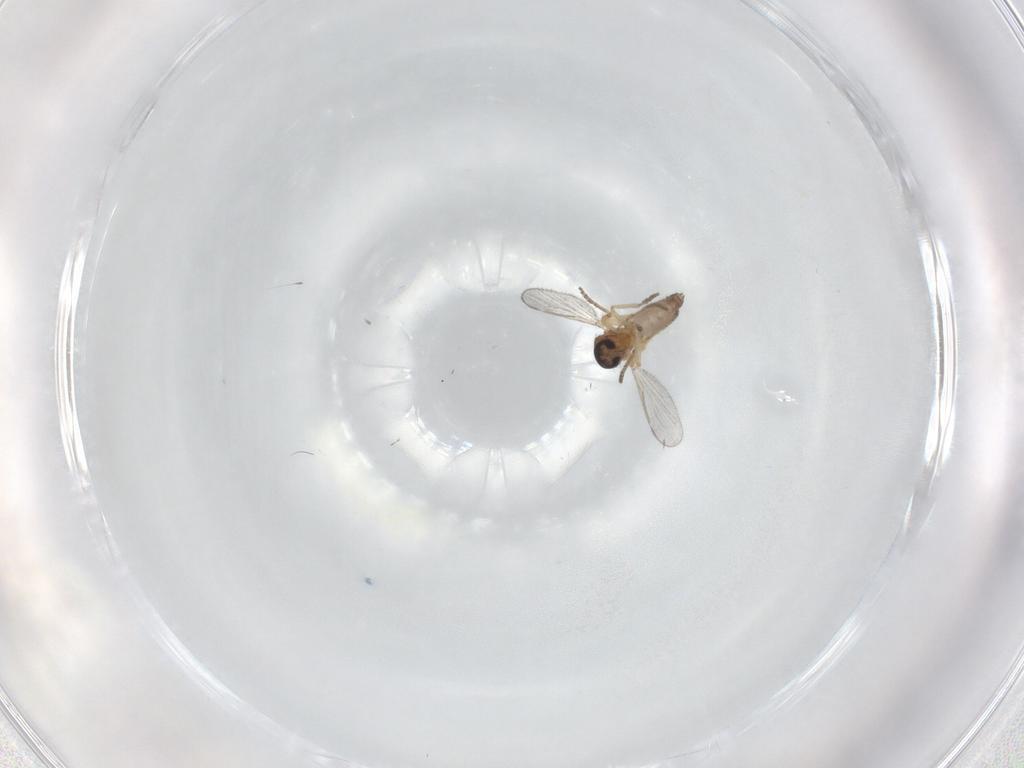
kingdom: Animalia
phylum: Arthropoda
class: Insecta
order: Diptera
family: Ceratopogonidae
